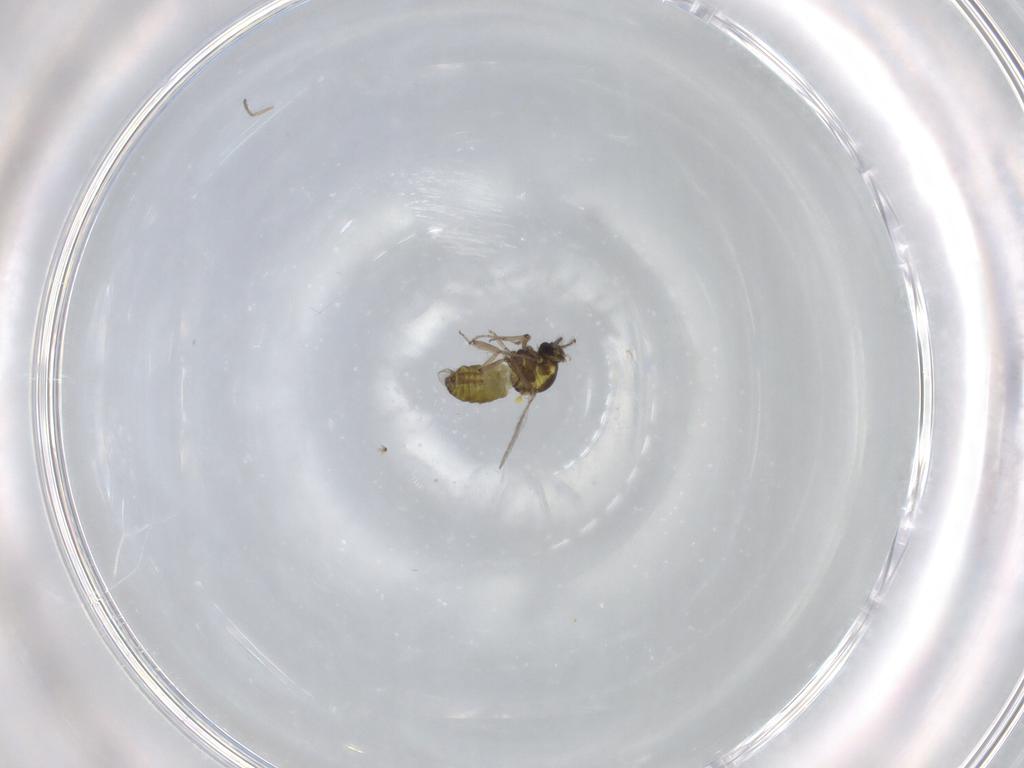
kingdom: Animalia
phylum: Arthropoda
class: Insecta
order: Diptera
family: Ceratopogonidae
